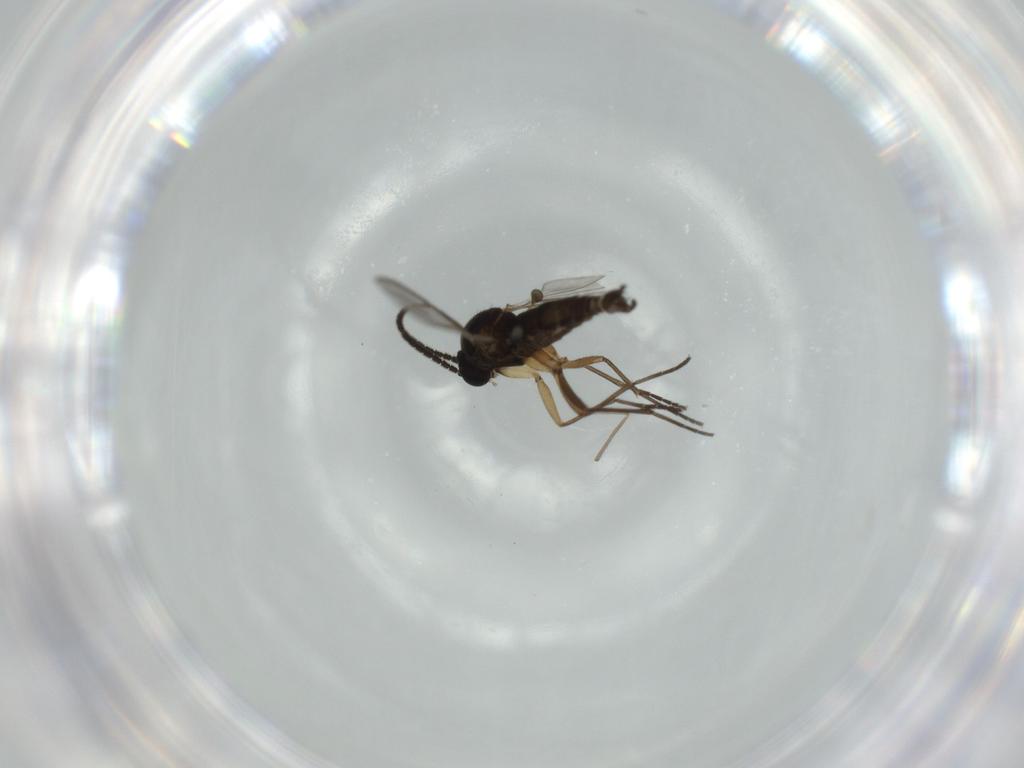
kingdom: Animalia
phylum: Arthropoda
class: Insecta
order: Diptera
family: Sciaridae
